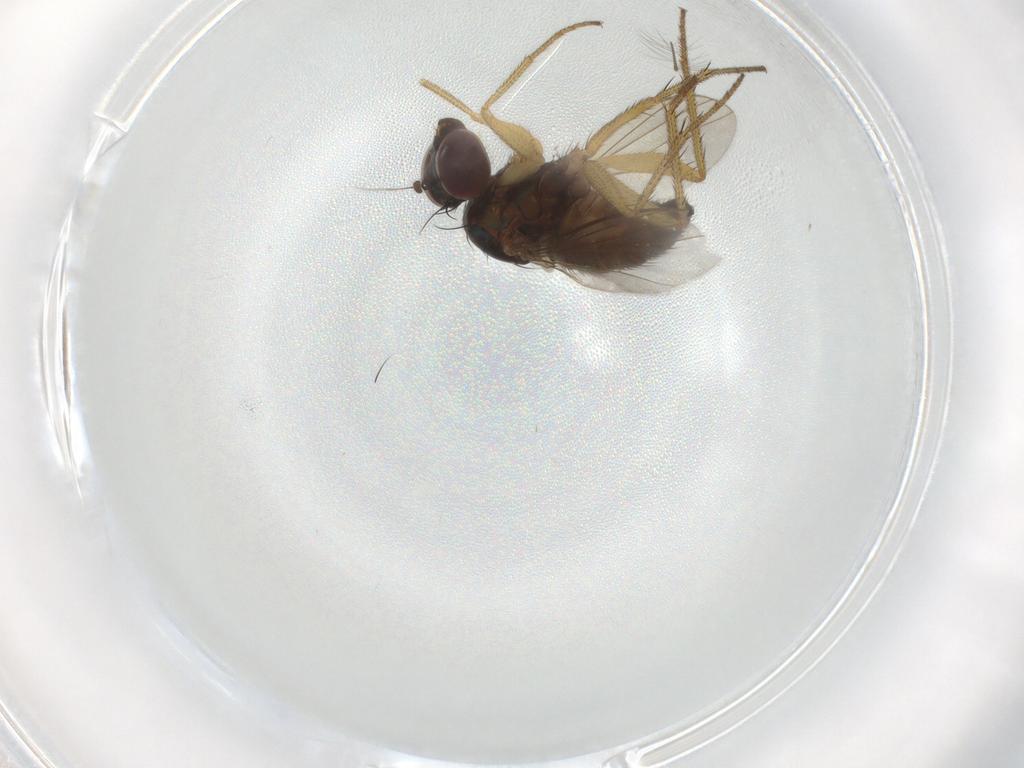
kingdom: Animalia
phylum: Arthropoda
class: Insecta
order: Diptera
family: Dolichopodidae
